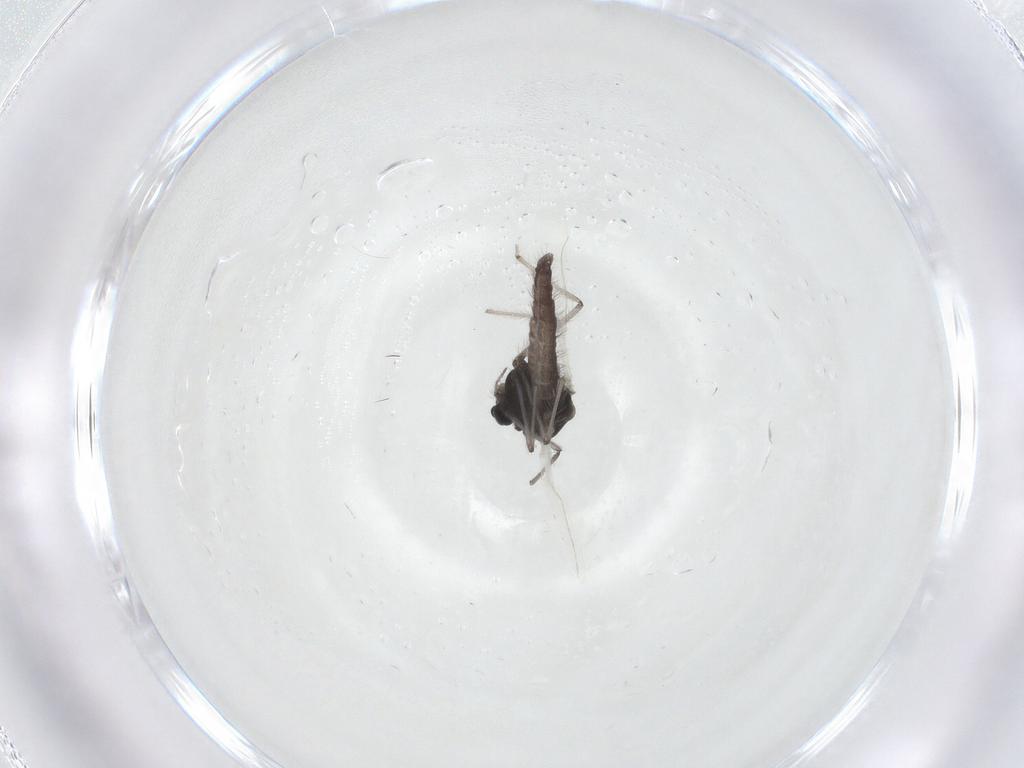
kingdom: Animalia
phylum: Arthropoda
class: Insecta
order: Diptera
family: Chironomidae
